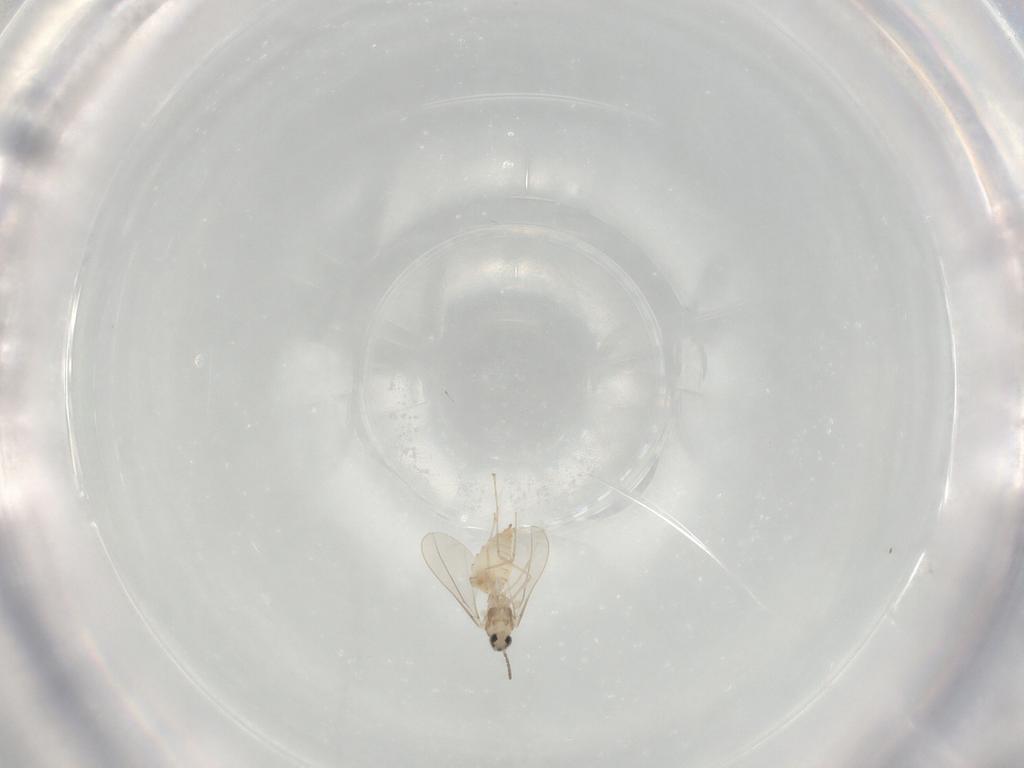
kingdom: Animalia
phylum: Arthropoda
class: Insecta
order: Diptera
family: Cecidomyiidae
